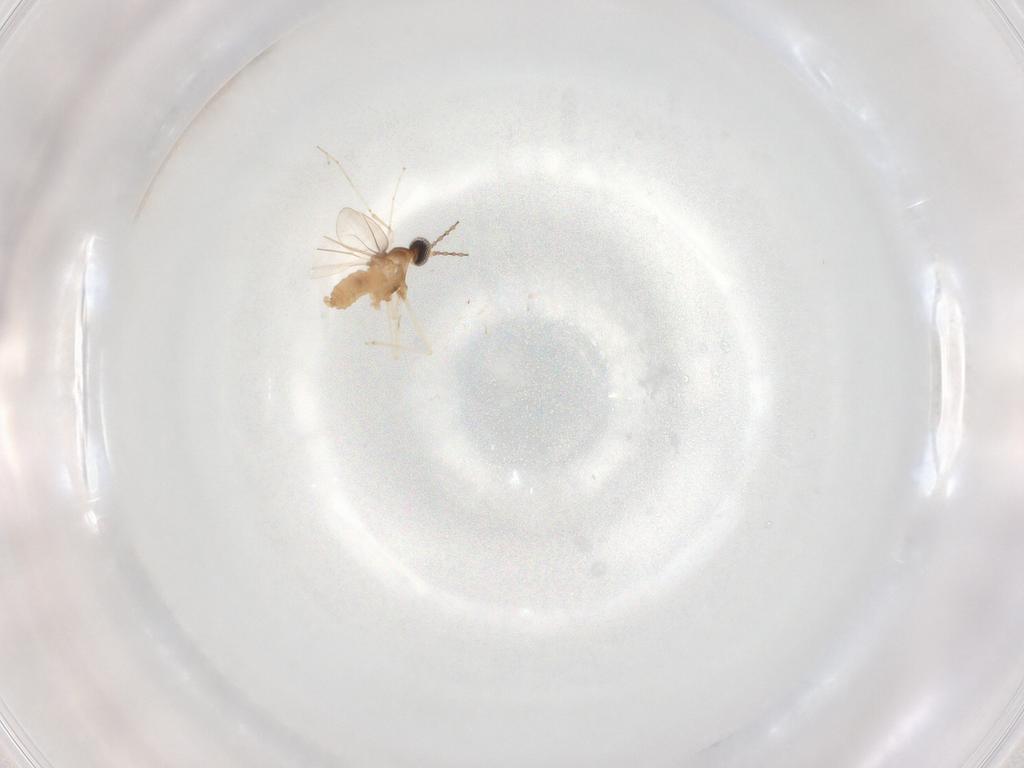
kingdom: Animalia
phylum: Arthropoda
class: Insecta
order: Diptera
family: Cecidomyiidae
